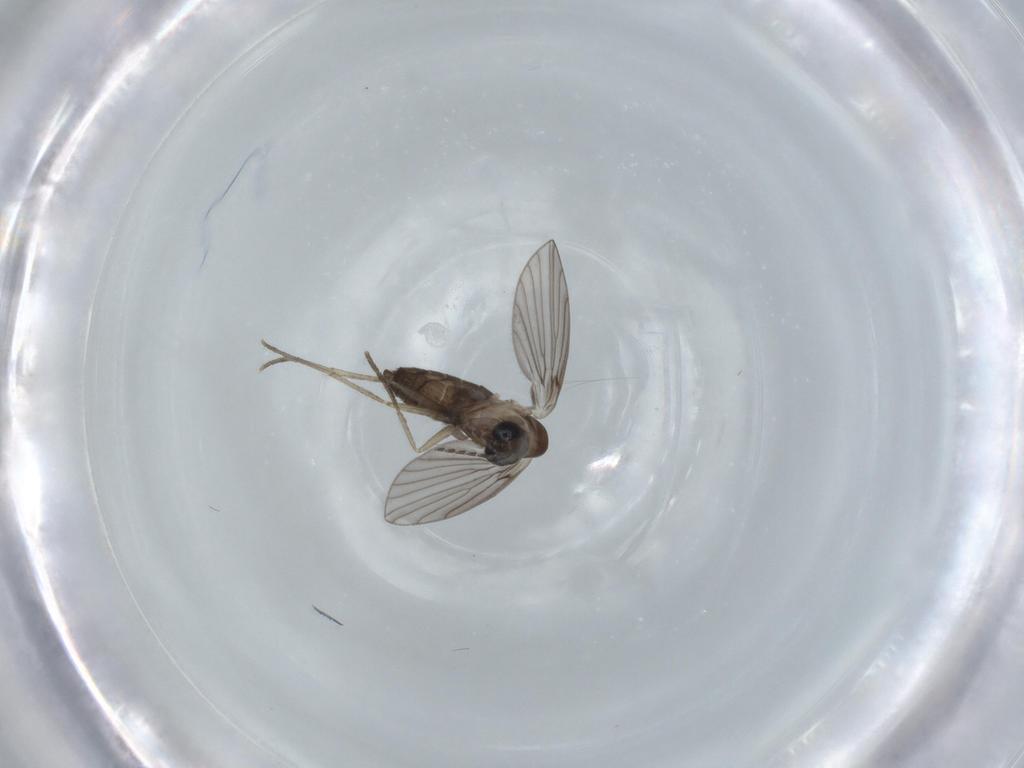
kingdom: Animalia
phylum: Arthropoda
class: Insecta
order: Diptera
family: Psychodidae
